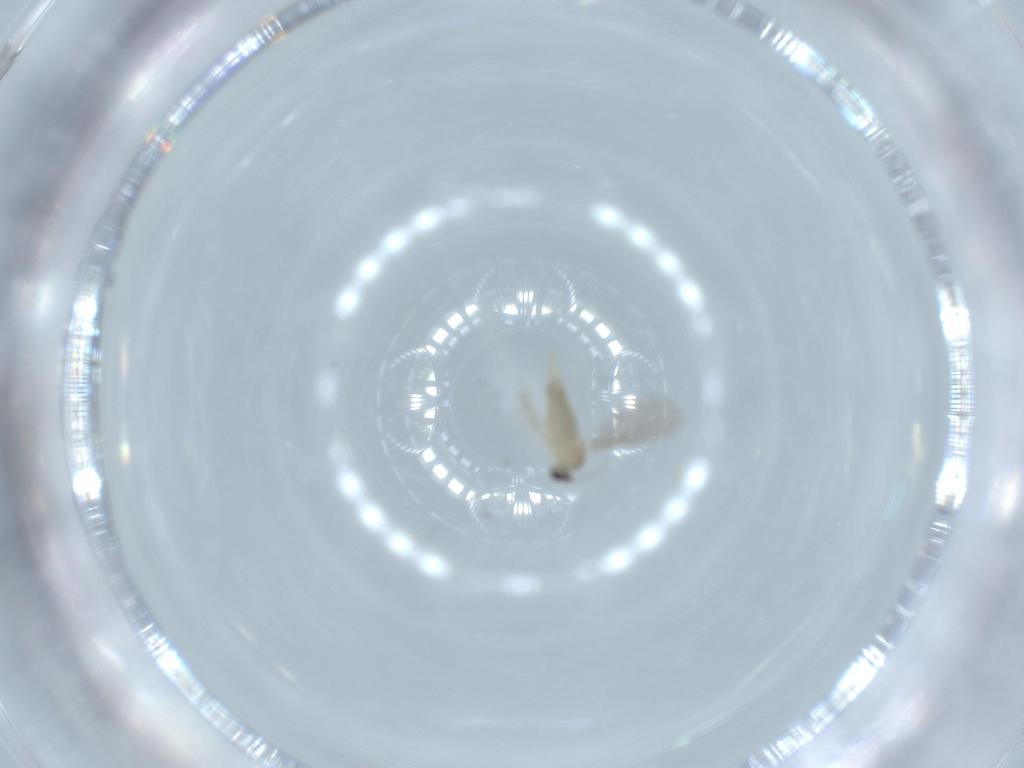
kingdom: Animalia
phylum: Arthropoda
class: Insecta
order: Diptera
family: Cecidomyiidae
